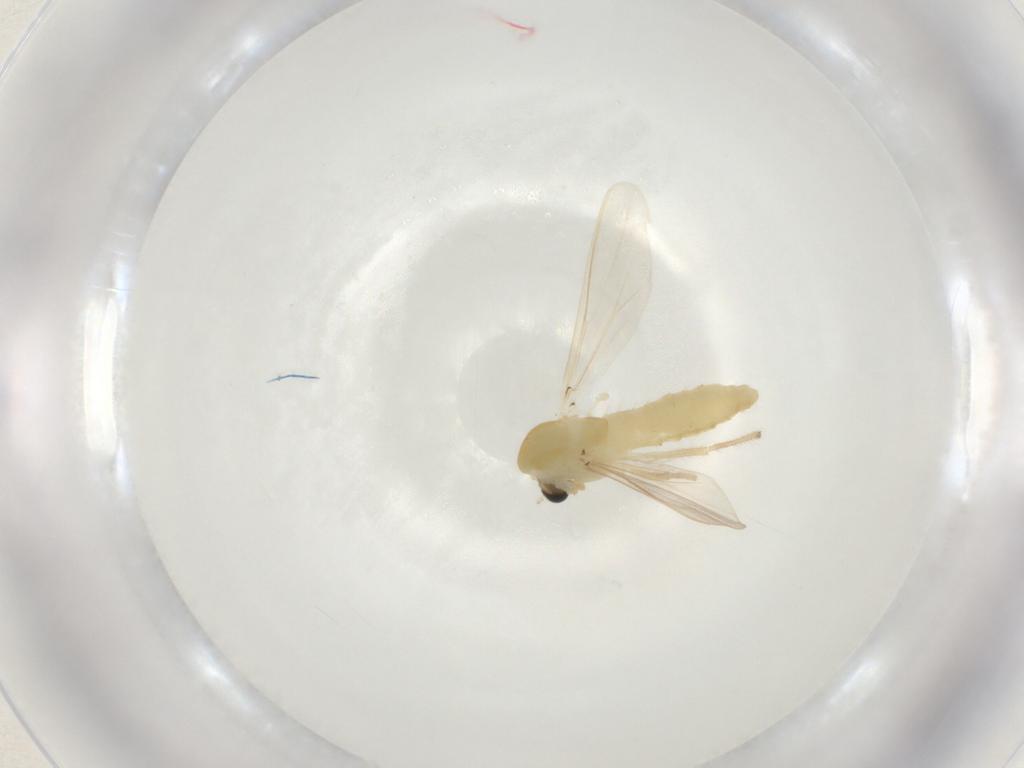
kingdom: Animalia
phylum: Arthropoda
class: Insecta
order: Diptera
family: Chironomidae
